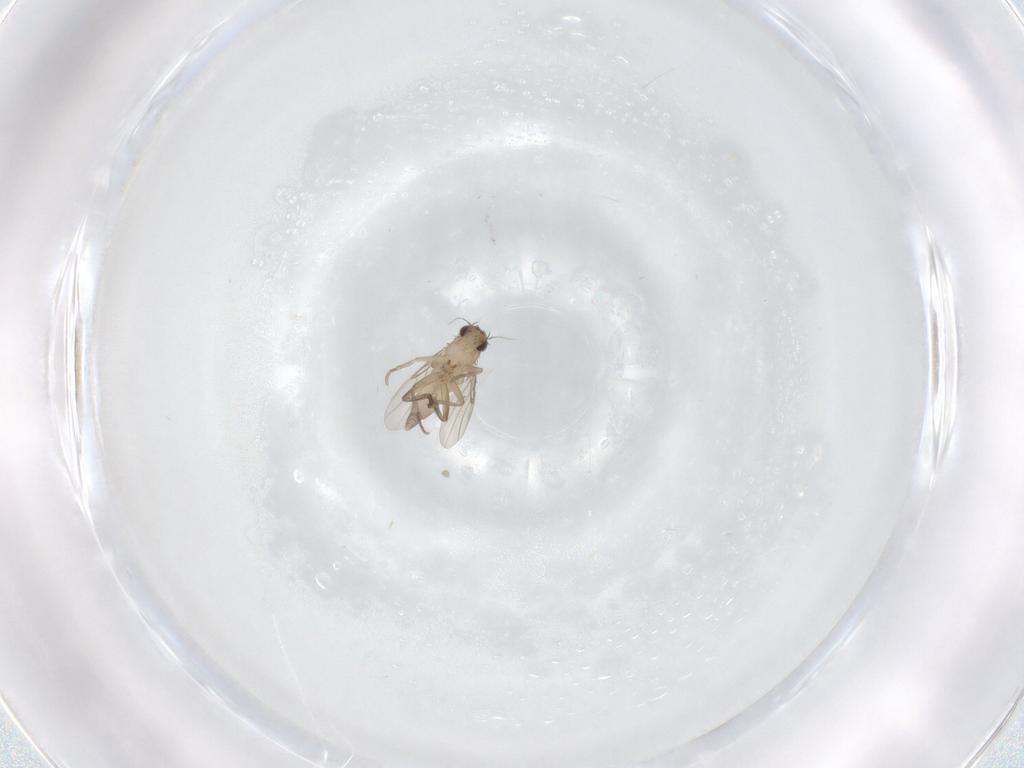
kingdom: Animalia
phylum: Arthropoda
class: Insecta
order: Diptera
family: Phoridae
